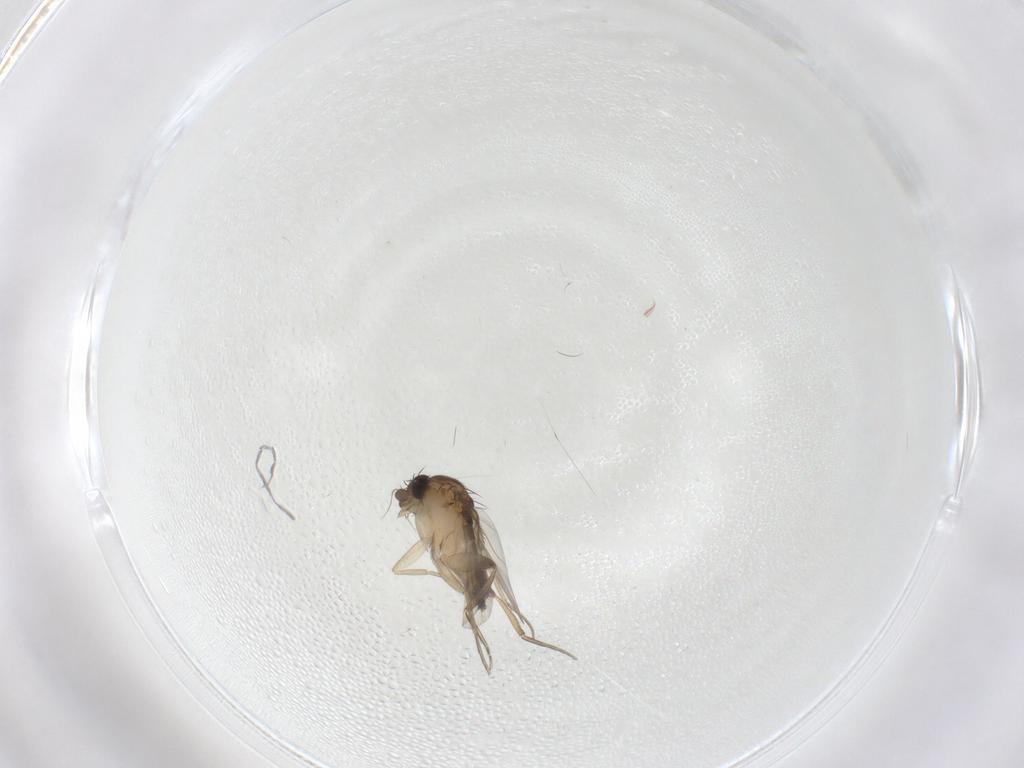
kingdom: Animalia
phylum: Arthropoda
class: Insecta
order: Diptera
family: Phoridae
